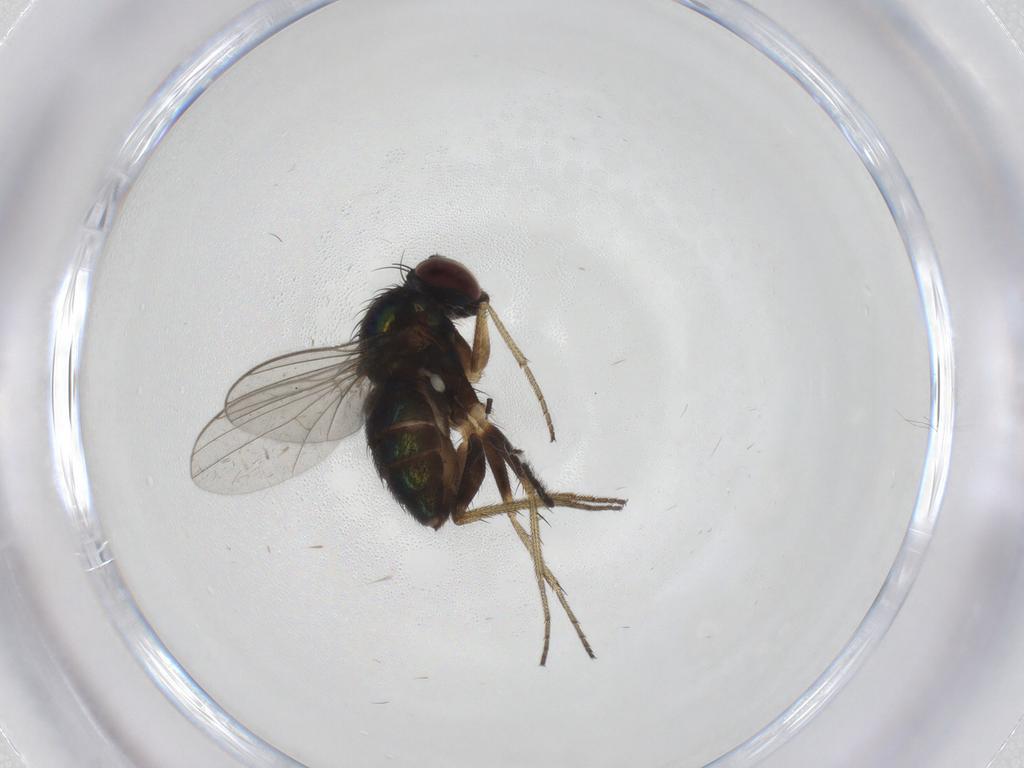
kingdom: Animalia
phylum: Arthropoda
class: Insecta
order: Diptera
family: Dolichopodidae
